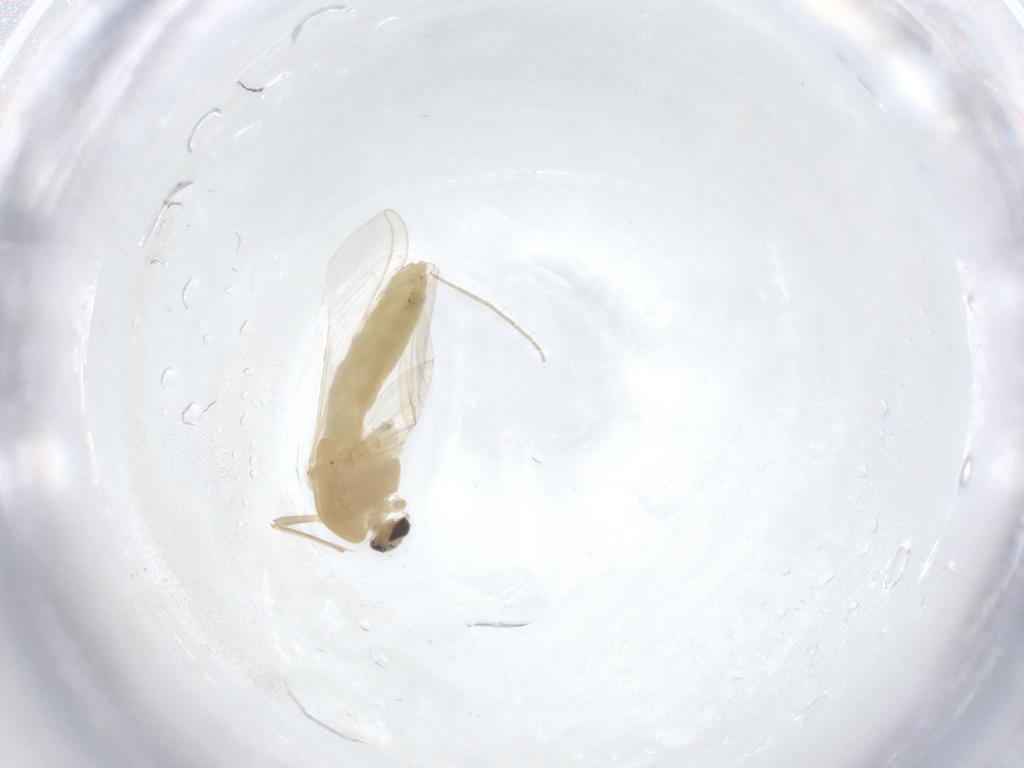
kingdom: Animalia
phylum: Arthropoda
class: Insecta
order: Diptera
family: Chironomidae
